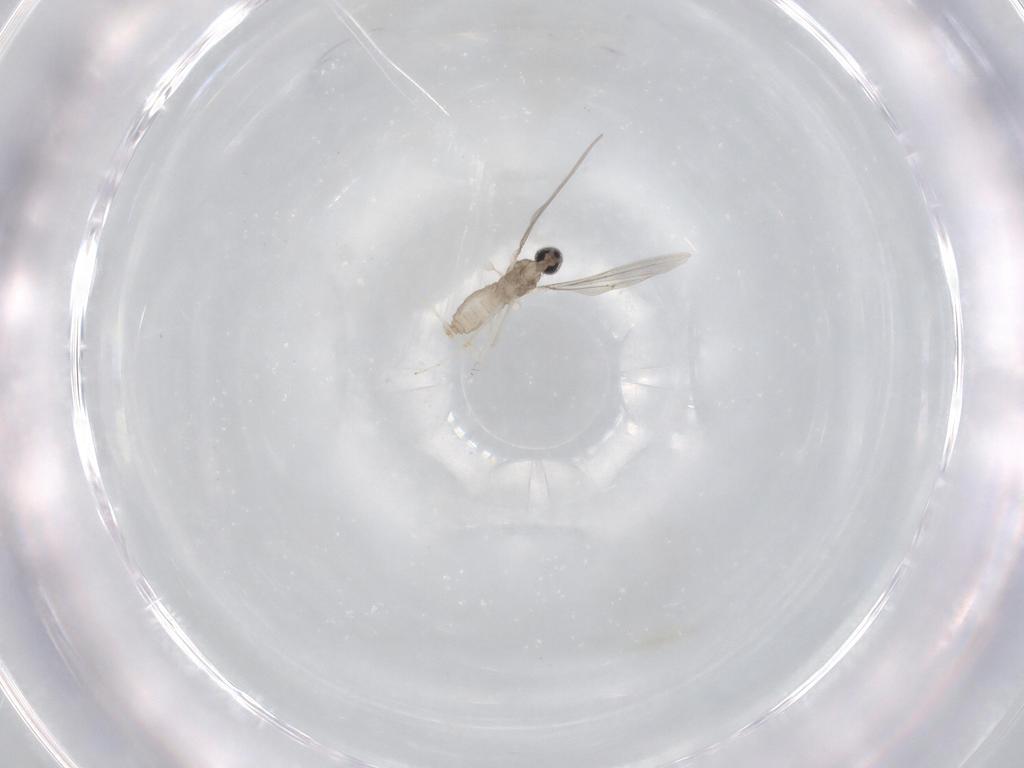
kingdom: Animalia
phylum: Arthropoda
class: Insecta
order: Diptera
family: Cecidomyiidae
